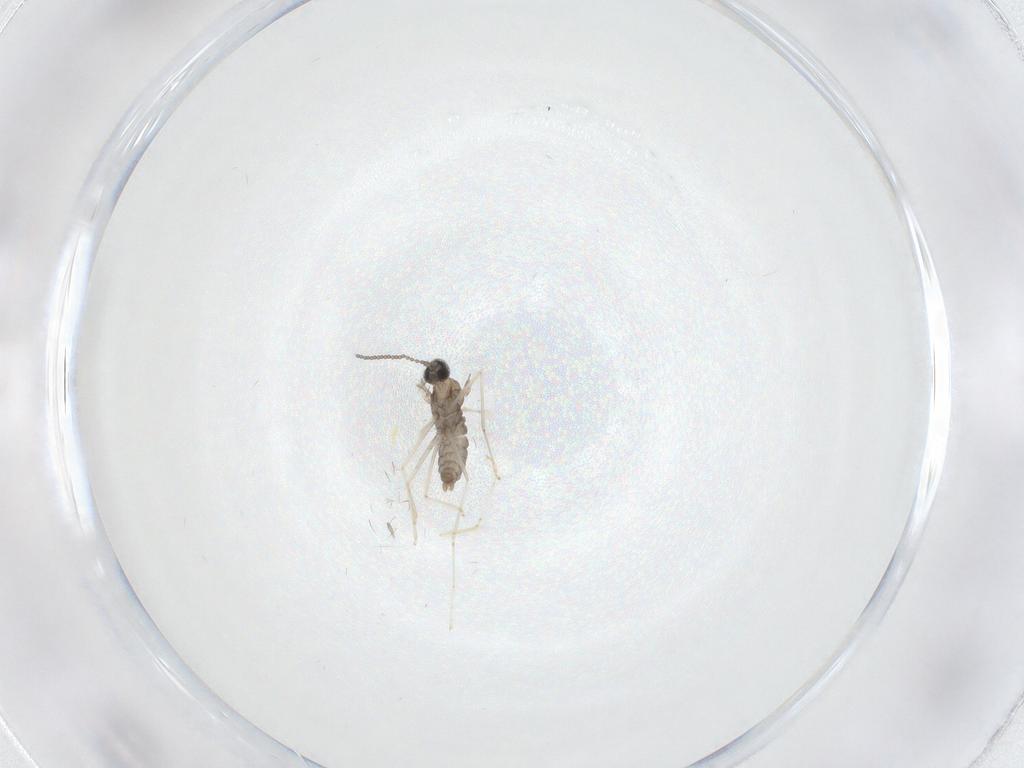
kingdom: Animalia
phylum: Arthropoda
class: Insecta
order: Diptera
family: Cecidomyiidae
